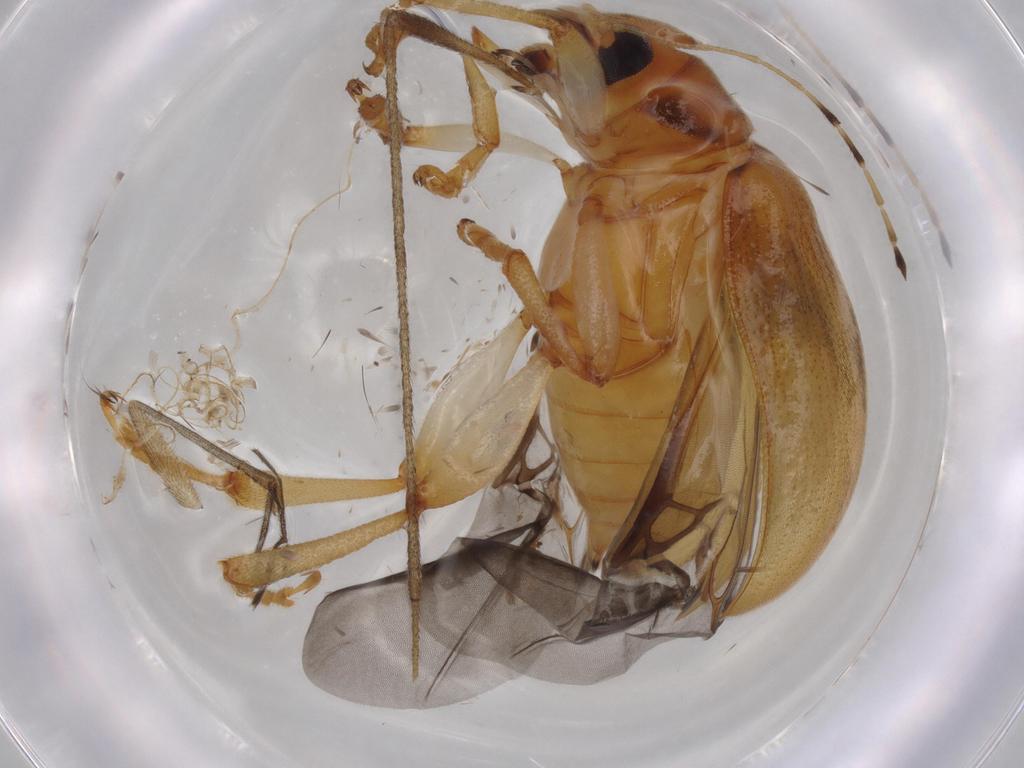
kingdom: Animalia
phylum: Arthropoda
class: Insecta
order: Coleoptera
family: Chrysomelidae
